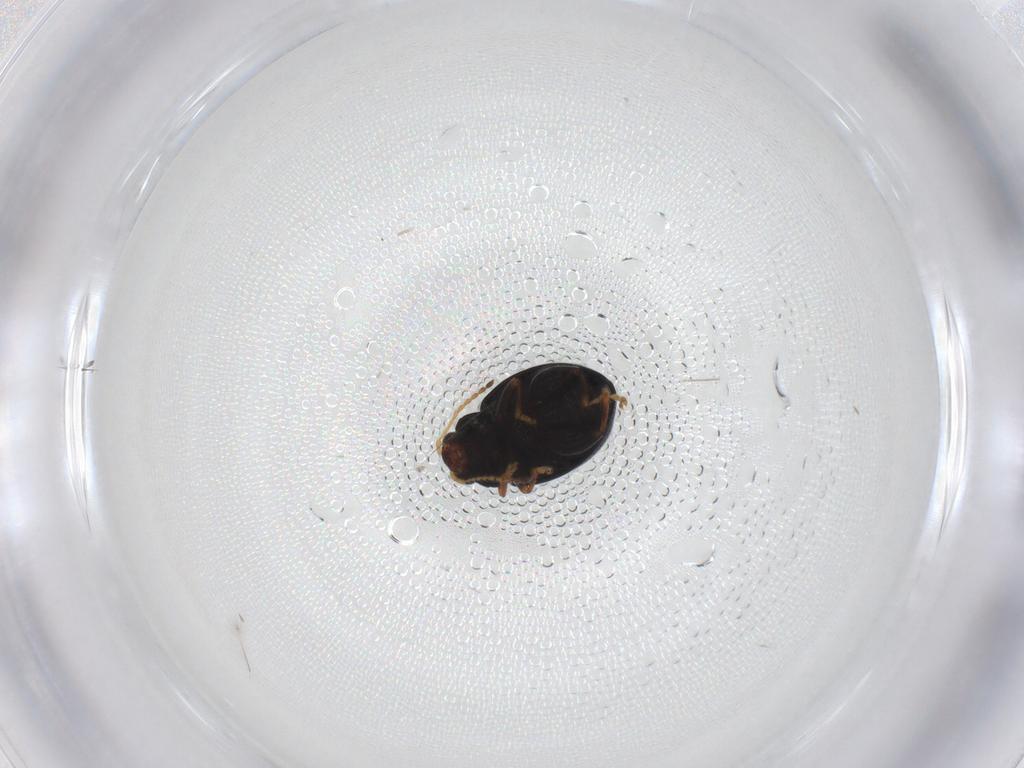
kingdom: Animalia
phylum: Arthropoda
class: Insecta
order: Coleoptera
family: Chrysomelidae
